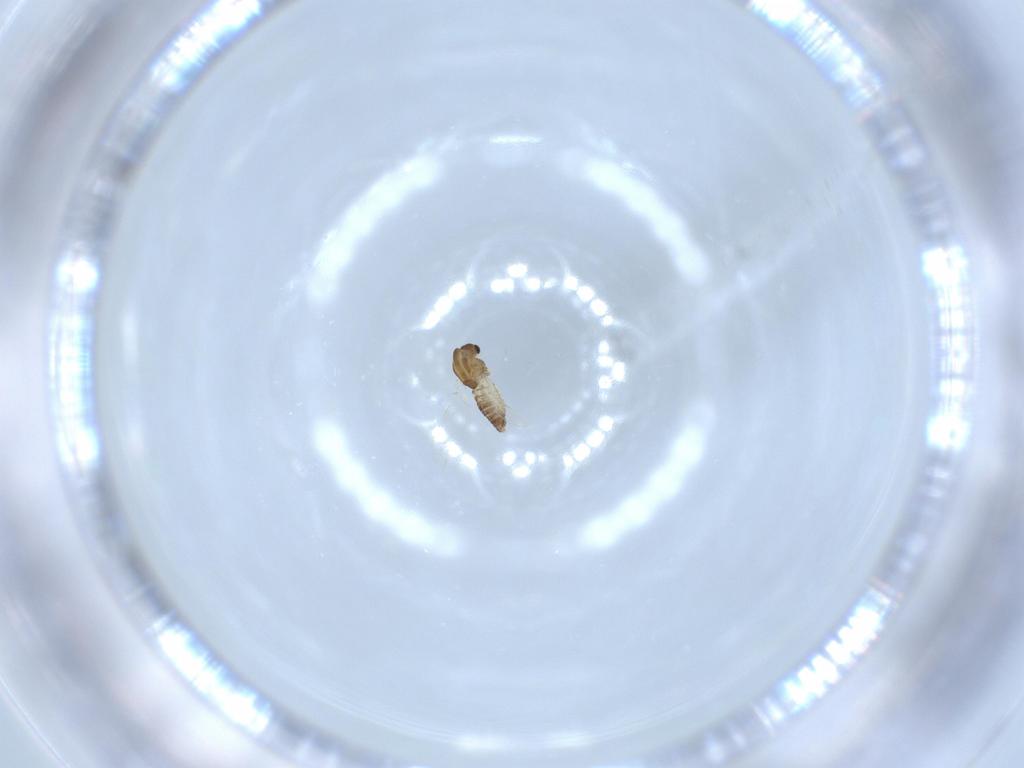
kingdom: Animalia
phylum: Arthropoda
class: Insecta
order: Diptera
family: Chironomidae
